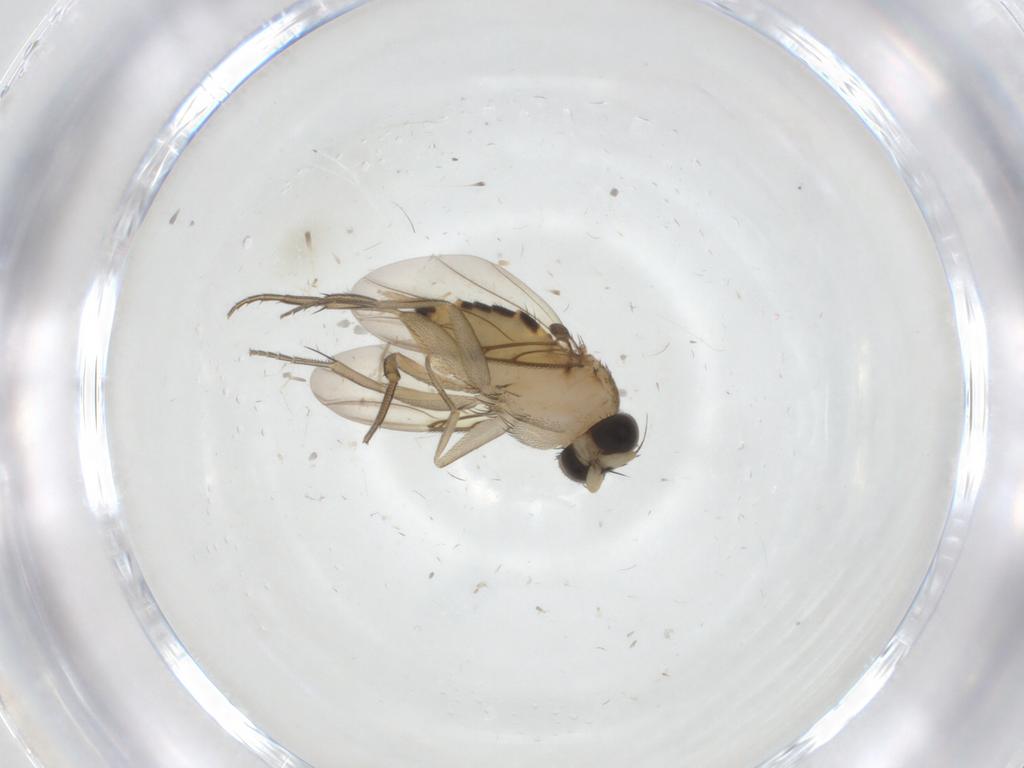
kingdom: Animalia
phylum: Arthropoda
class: Insecta
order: Diptera
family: Phoridae
